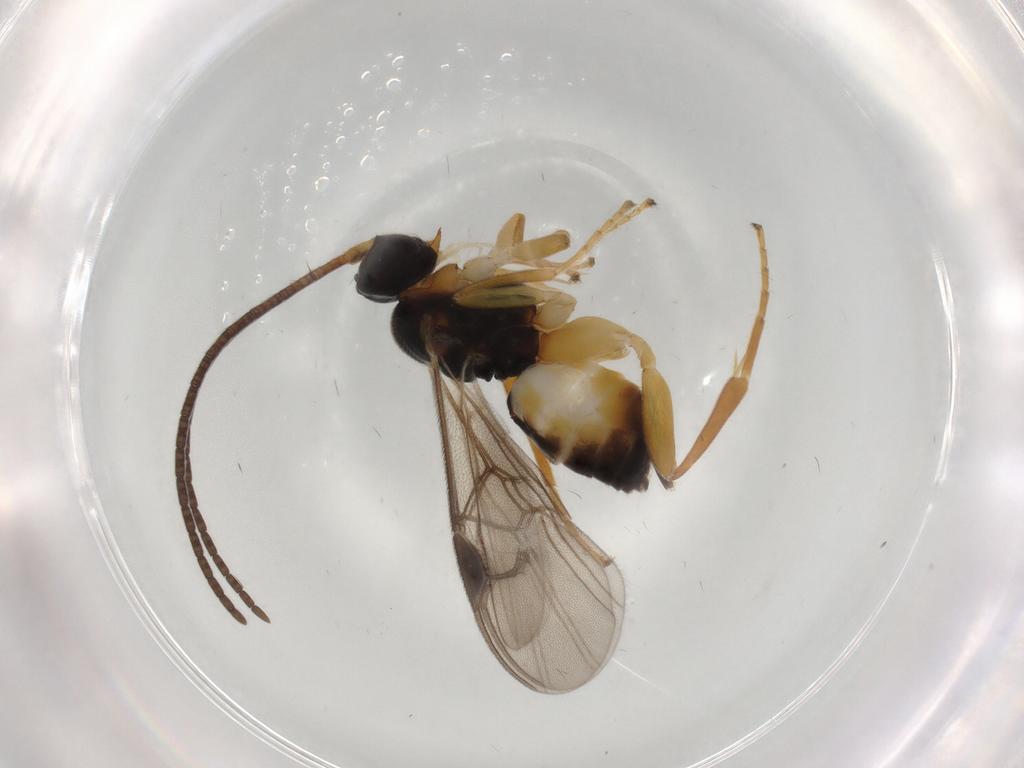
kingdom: Animalia
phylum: Arthropoda
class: Insecta
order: Hymenoptera
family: Braconidae
